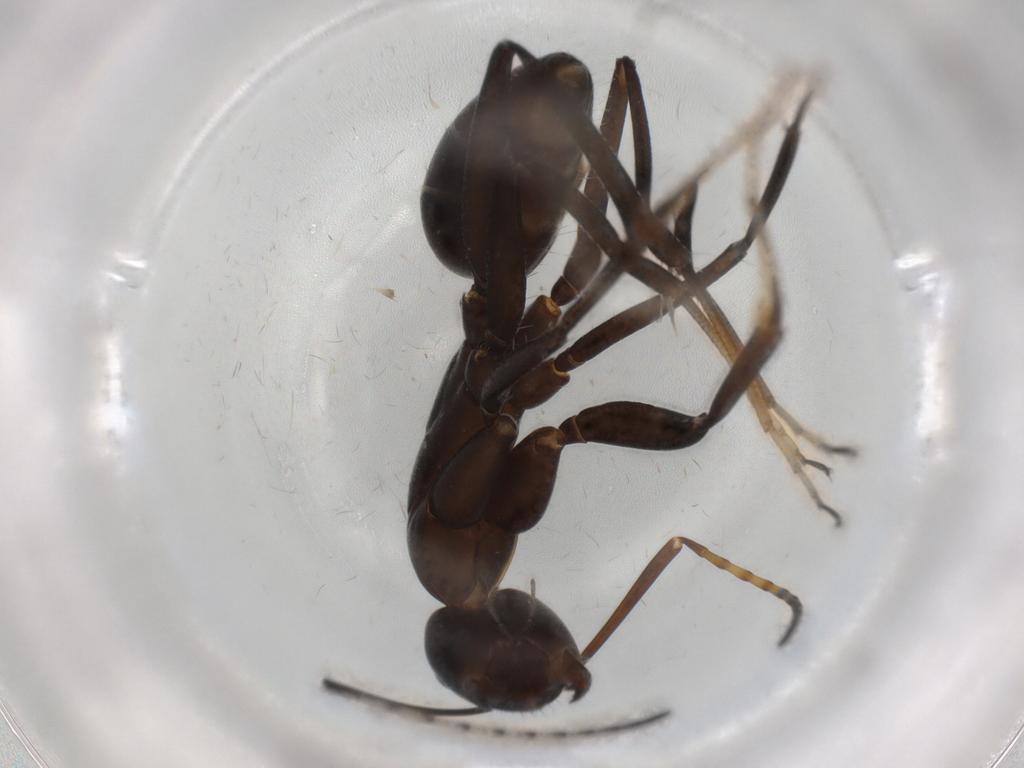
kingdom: Animalia
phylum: Arthropoda
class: Insecta
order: Hymenoptera
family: Formicidae
